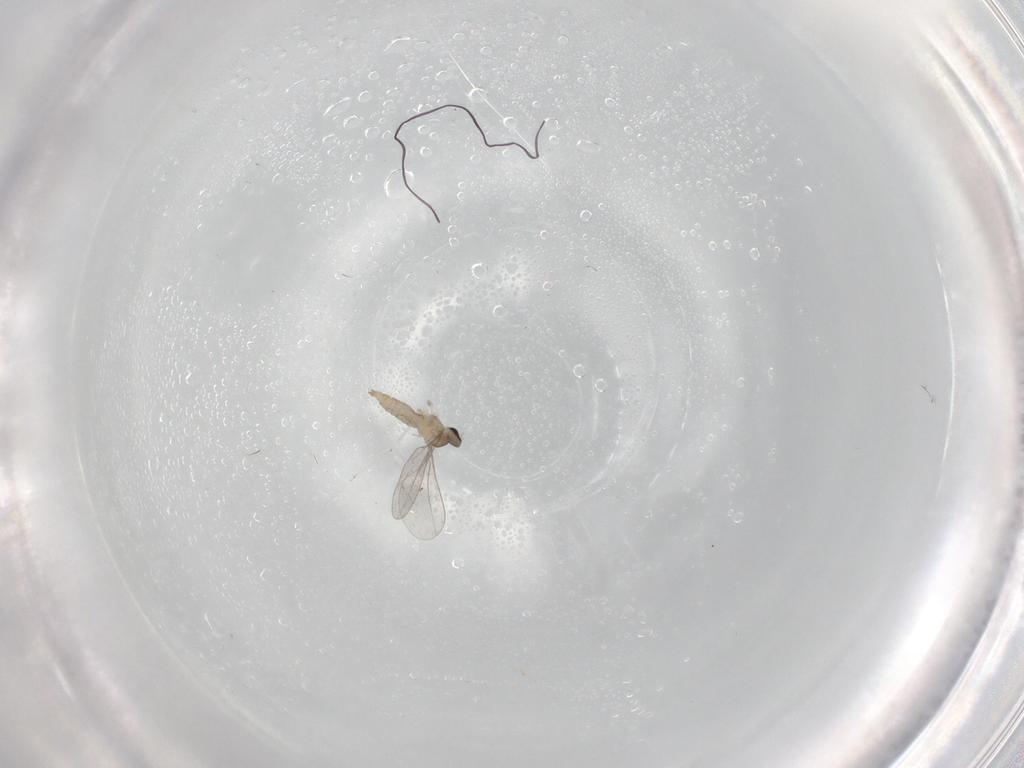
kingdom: Animalia
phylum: Arthropoda
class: Insecta
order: Diptera
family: Cecidomyiidae
